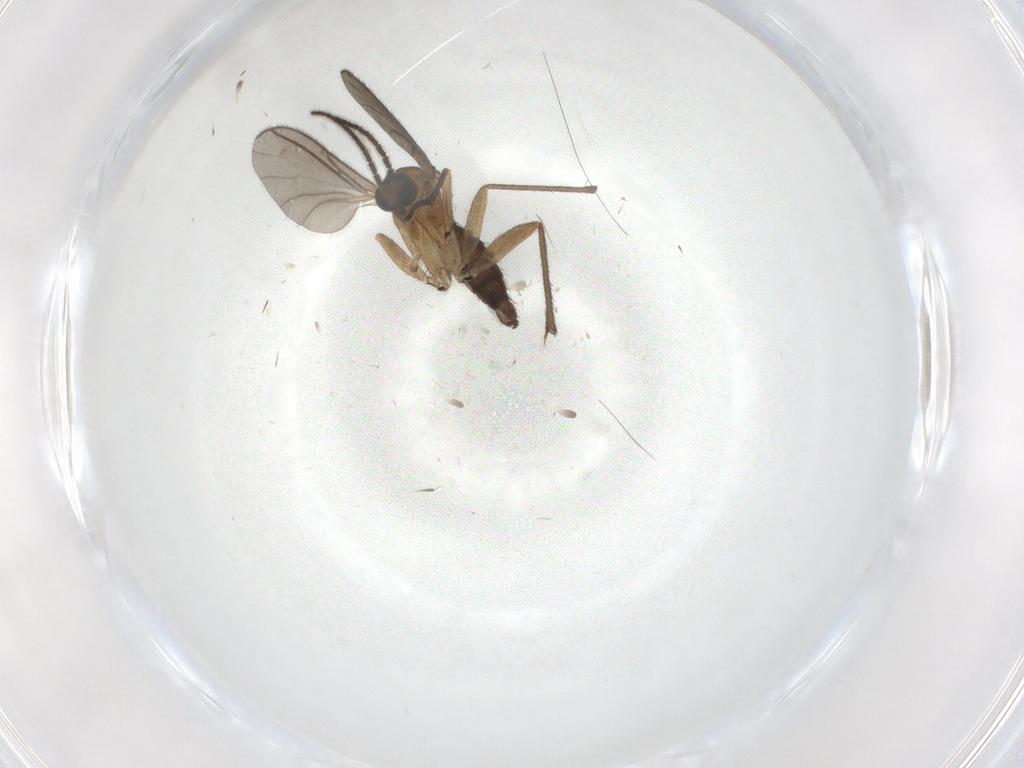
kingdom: Animalia
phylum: Arthropoda
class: Insecta
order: Diptera
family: Sciaridae
